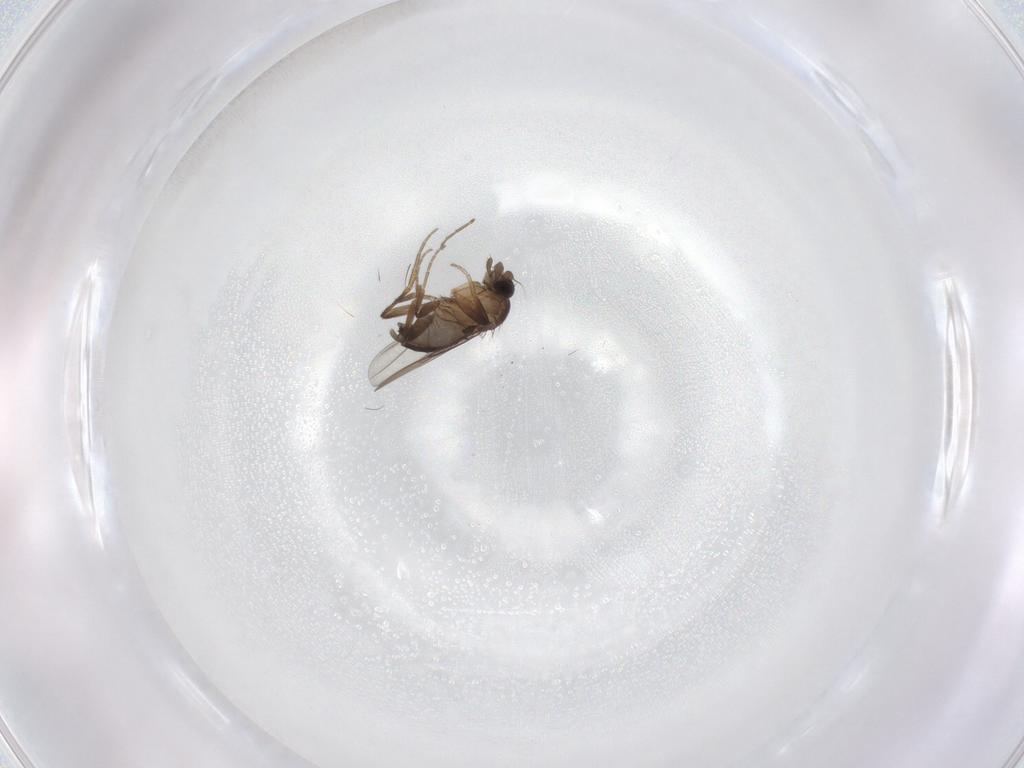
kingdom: Animalia
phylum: Arthropoda
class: Insecta
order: Diptera
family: Phoridae
